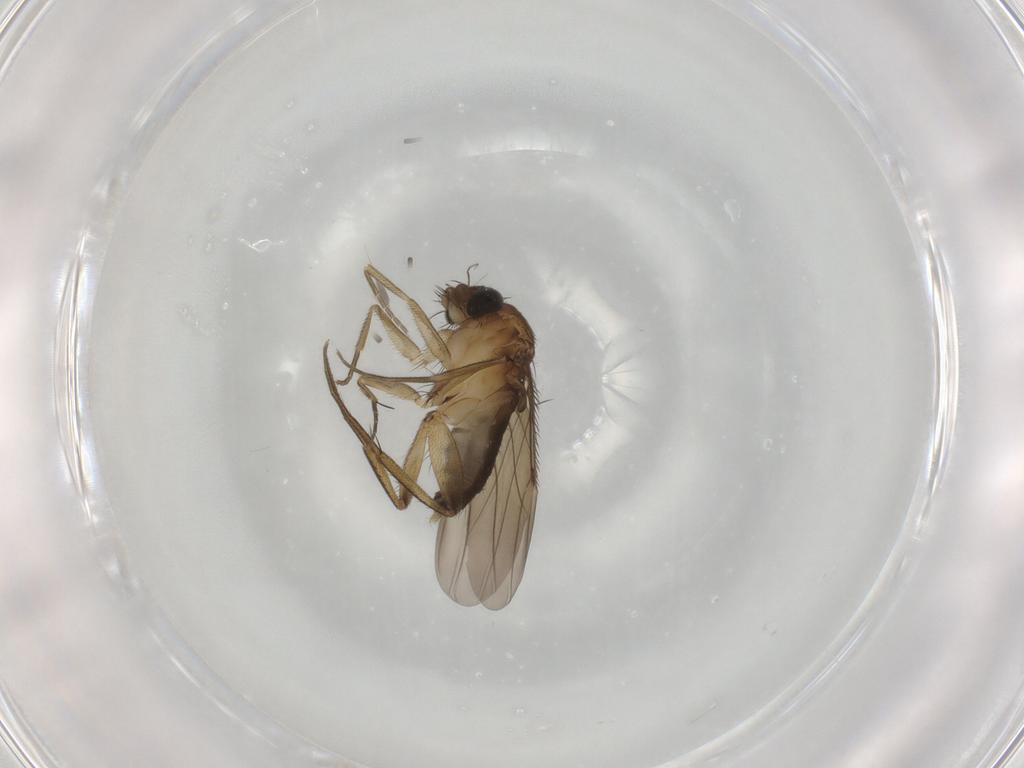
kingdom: Animalia
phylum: Arthropoda
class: Insecta
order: Diptera
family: Phoridae
